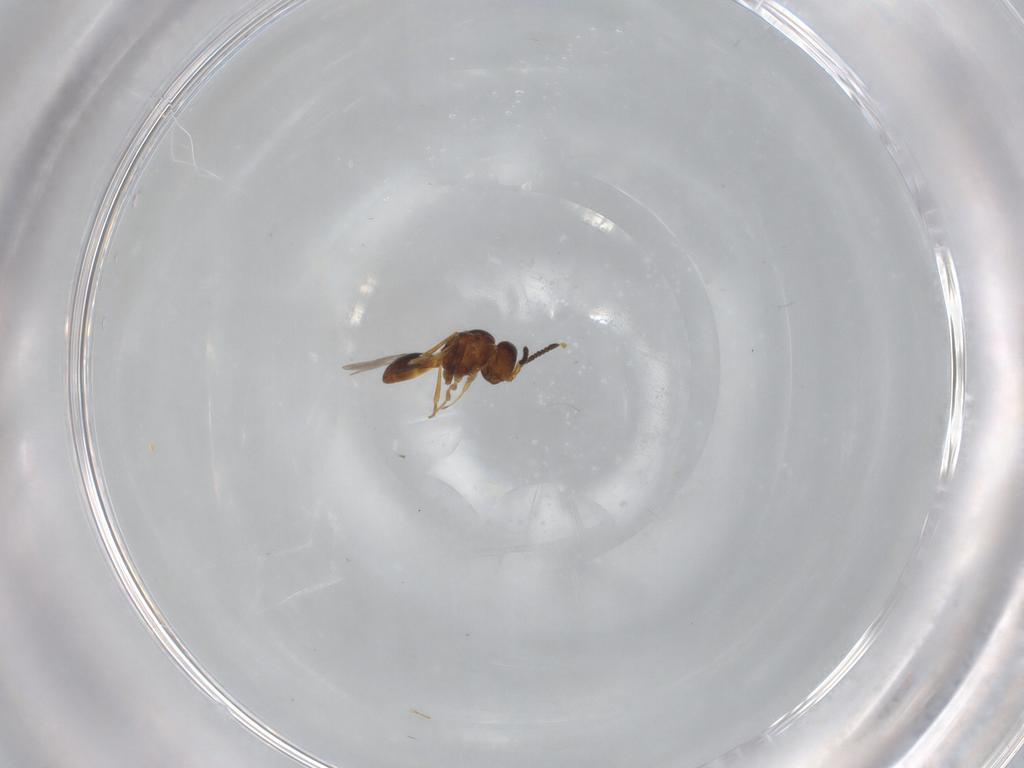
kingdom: Animalia
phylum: Arthropoda
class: Insecta
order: Hymenoptera
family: Scelionidae
